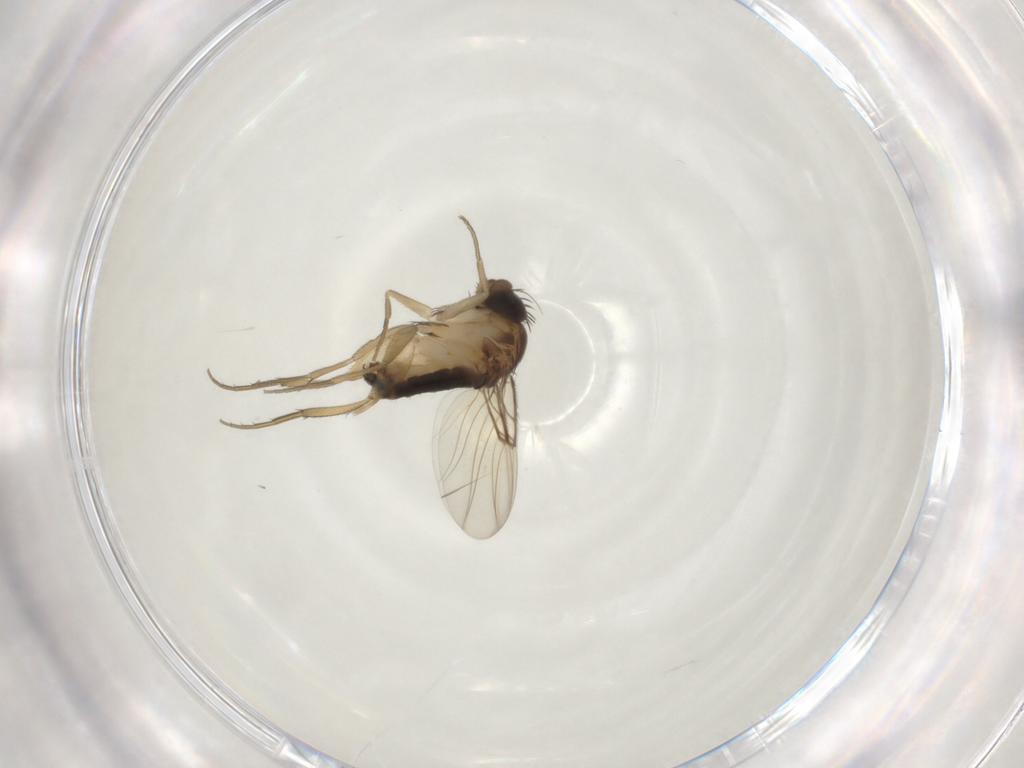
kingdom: Animalia
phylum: Arthropoda
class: Insecta
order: Diptera
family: Phoridae
